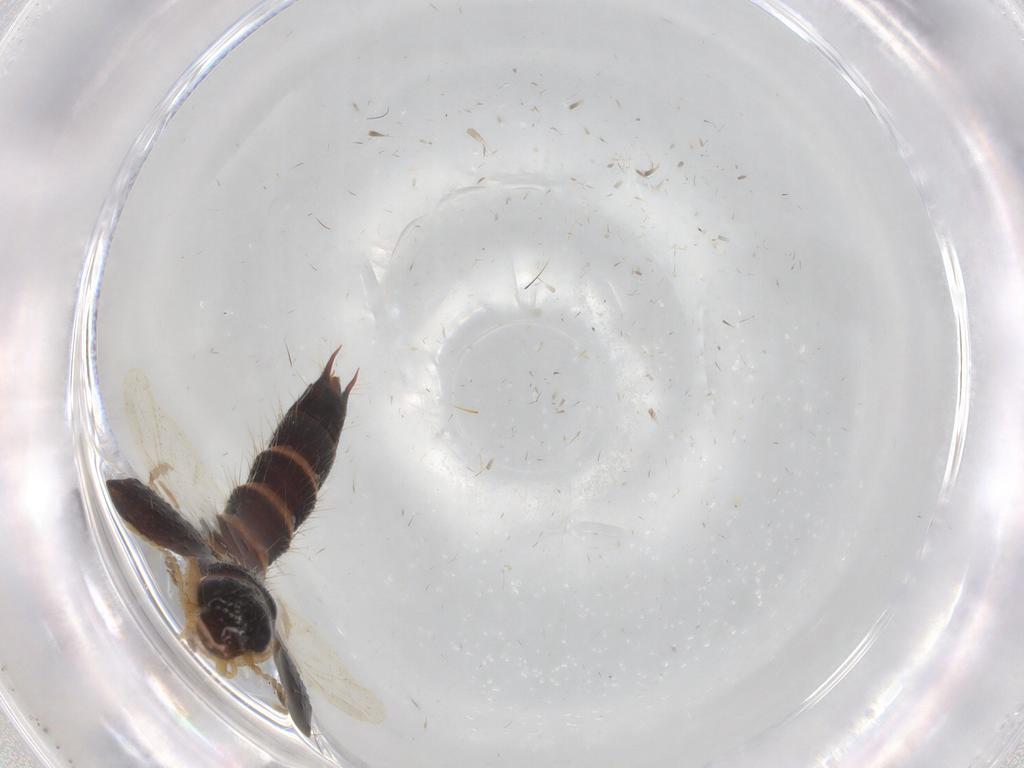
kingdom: Animalia
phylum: Arthropoda
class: Insecta
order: Coleoptera
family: Staphylinidae
